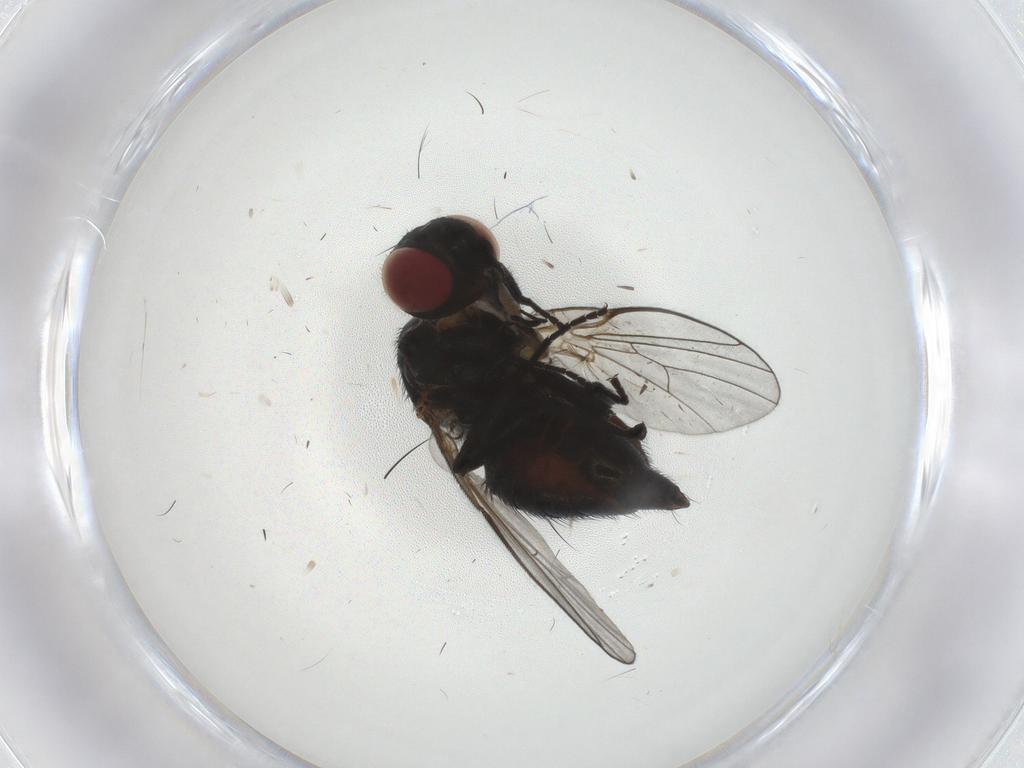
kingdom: Animalia
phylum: Arthropoda
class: Insecta
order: Diptera
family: Agromyzidae
